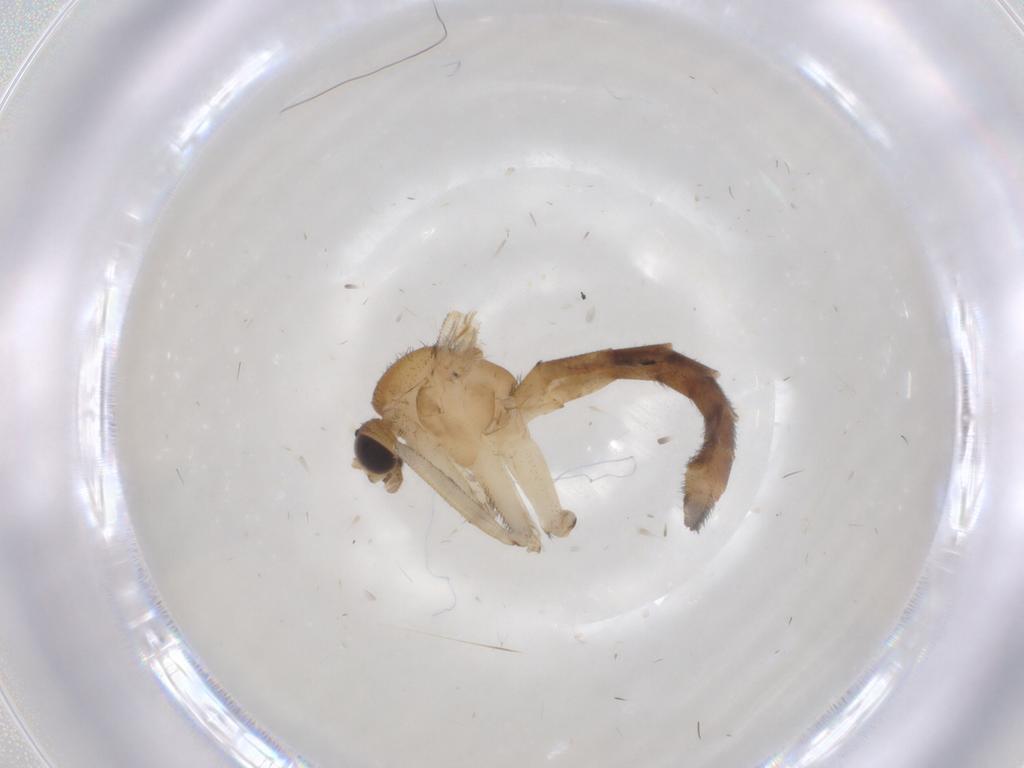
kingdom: Animalia
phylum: Arthropoda
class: Insecta
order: Diptera
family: Keroplatidae
